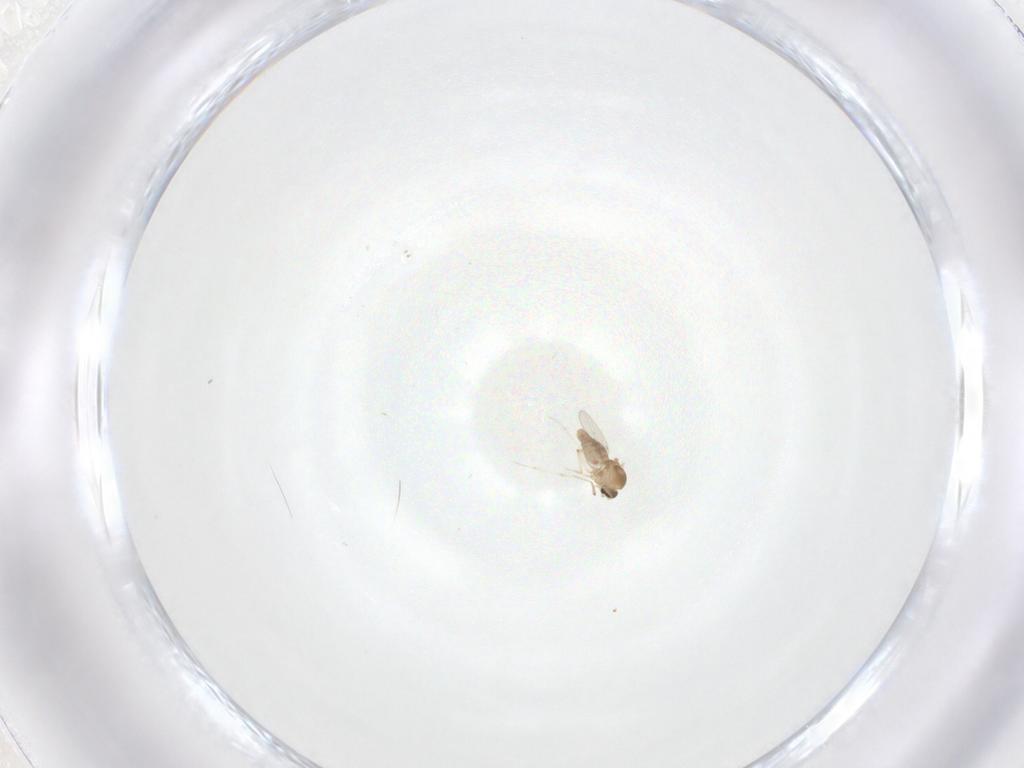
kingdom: Animalia
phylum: Arthropoda
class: Insecta
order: Diptera
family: Ceratopogonidae
